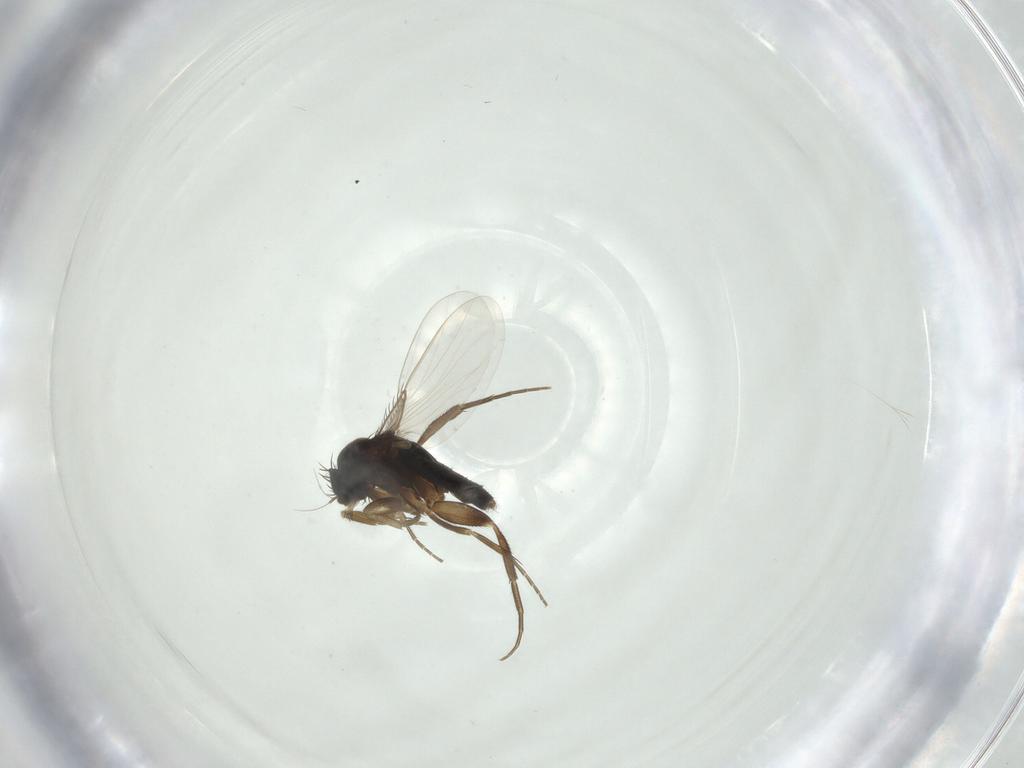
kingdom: Animalia
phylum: Arthropoda
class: Insecta
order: Diptera
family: Phoridae
